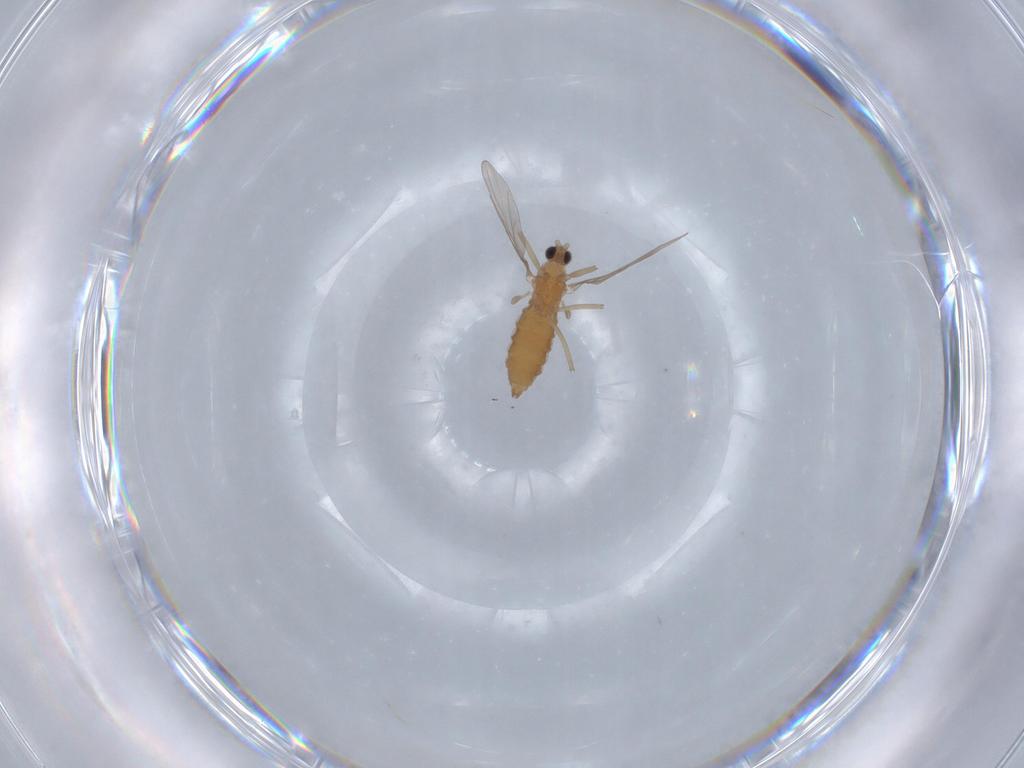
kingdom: Animalia
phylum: Arthropoda
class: Insecta
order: Diptera
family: Cecidomyiidae
